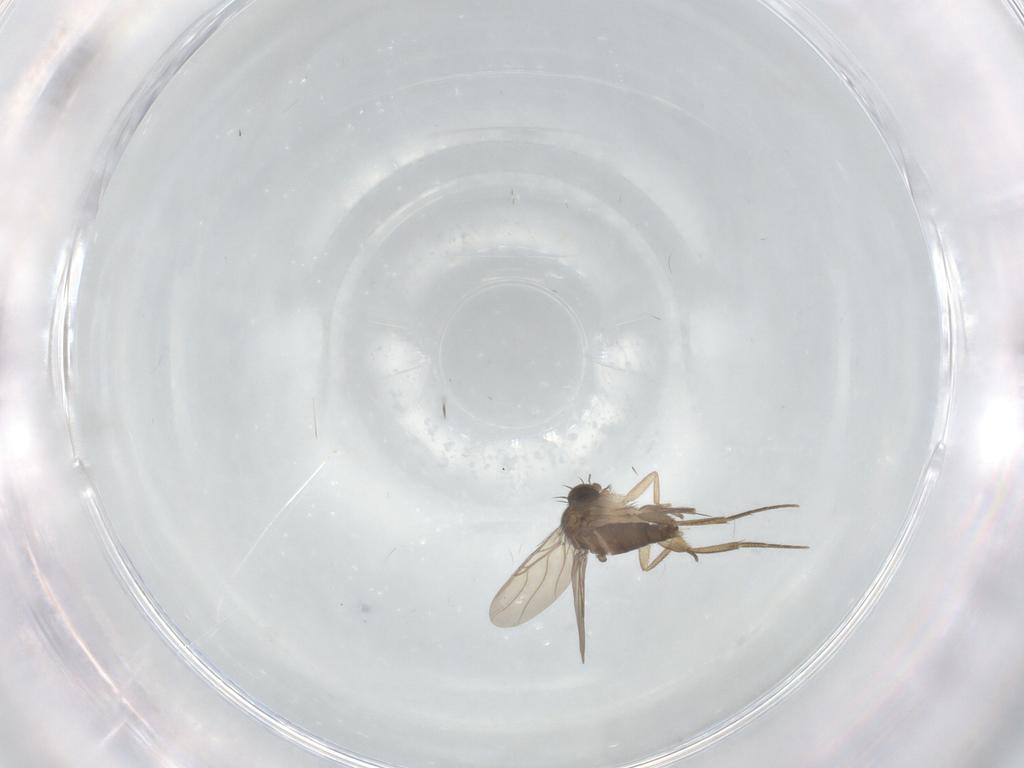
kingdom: Animalia
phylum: Arthropoda
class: Insecta
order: Diptera
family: Phoridae
